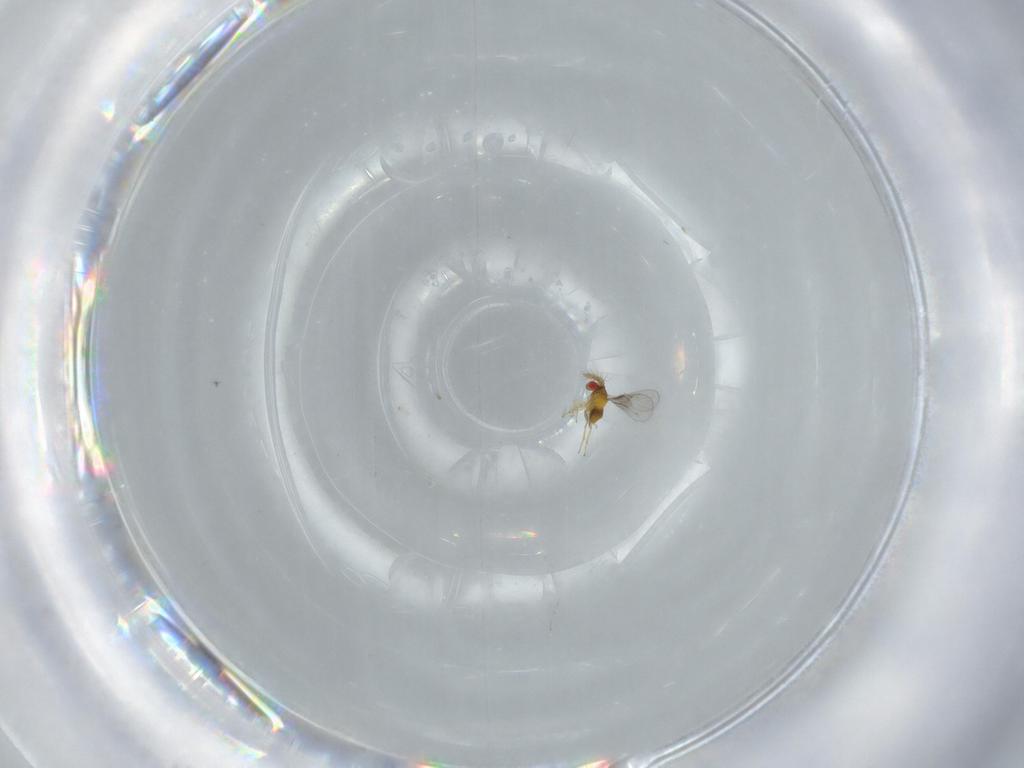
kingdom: Animalia
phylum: Arthropoda
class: Insecta
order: Hymenoptera
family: Trichogrammatidae
